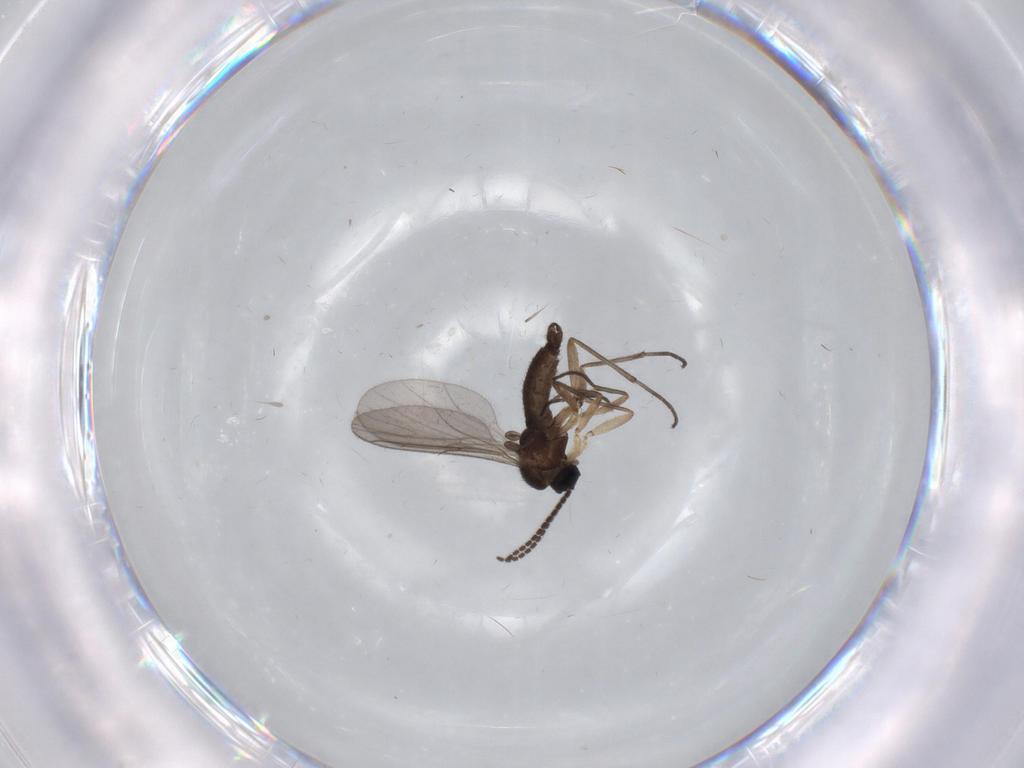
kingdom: Animalia
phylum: Arthropoda
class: Insecta
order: Diptera
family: Sciaridae
